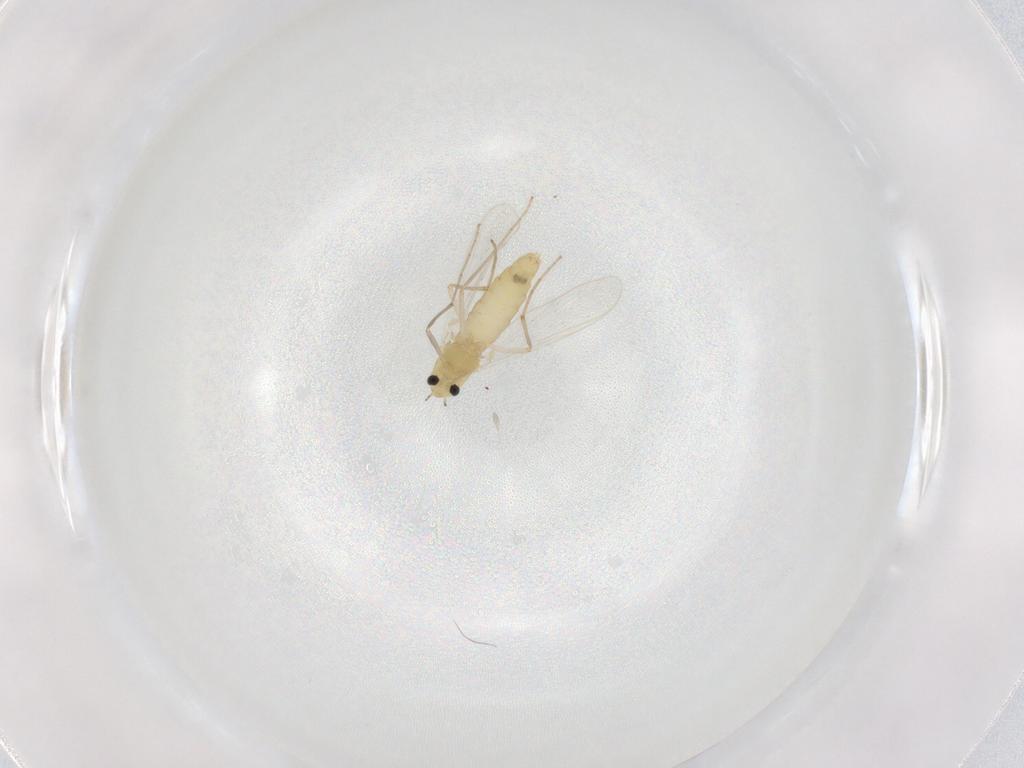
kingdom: Animalia
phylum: Arthropoda
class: Insecta
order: Diptera
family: Chironomidae
